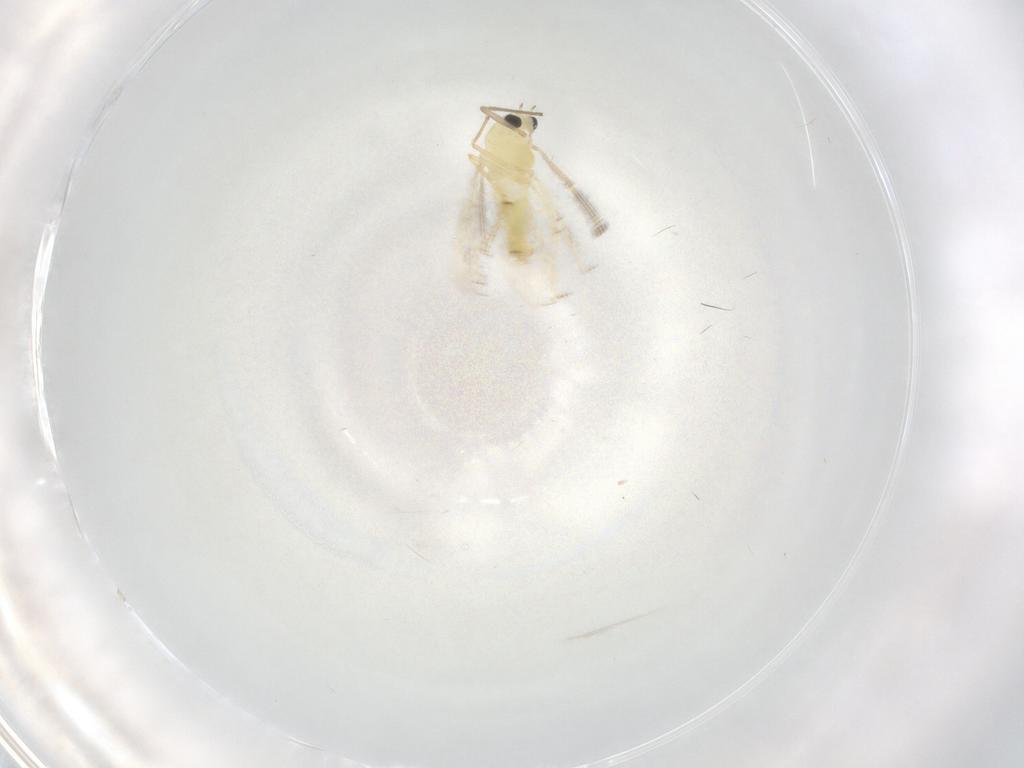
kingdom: Animalia
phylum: Arthropoda
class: Insecta
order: Diptera
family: Chironomidae
